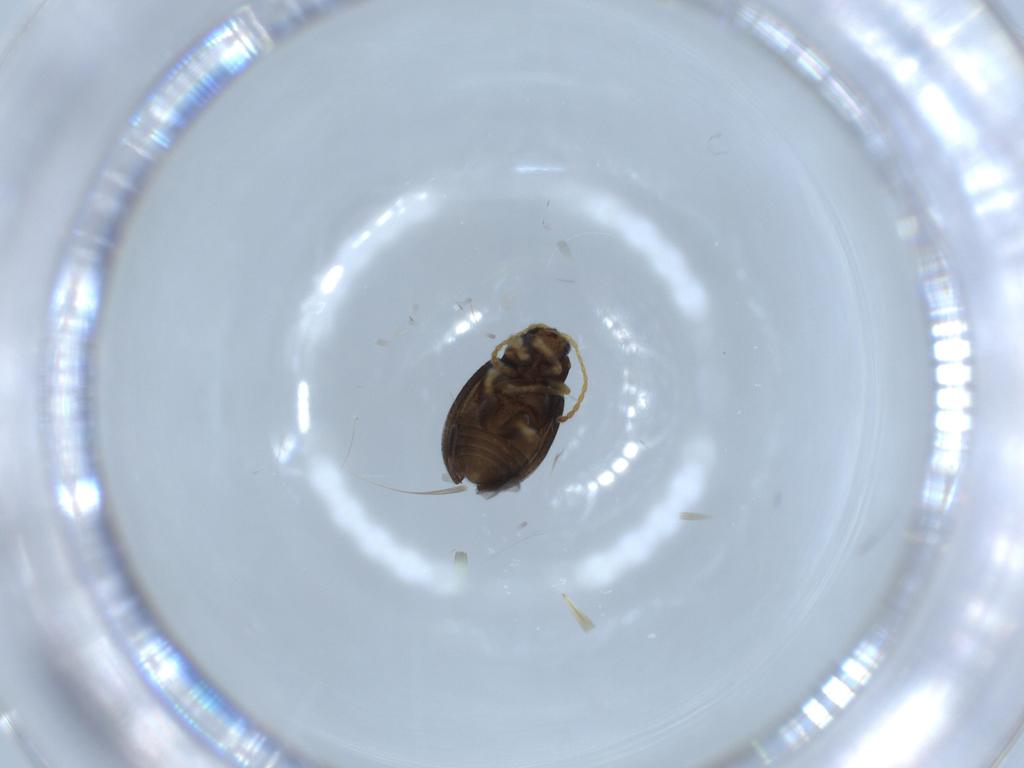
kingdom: Animalia
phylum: Arthropoda
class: Insecta
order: Coleoptera
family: Chrysomelidae
